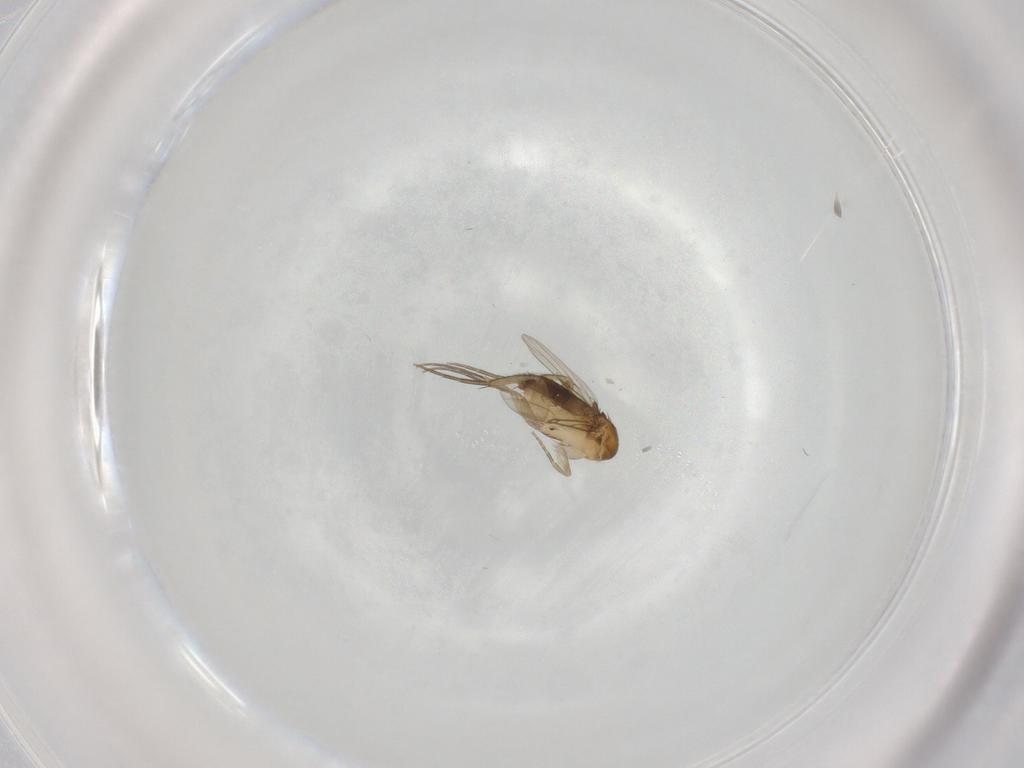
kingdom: Animalia
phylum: Arthropoda
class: Insecta
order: Diptera
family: Phoridae
